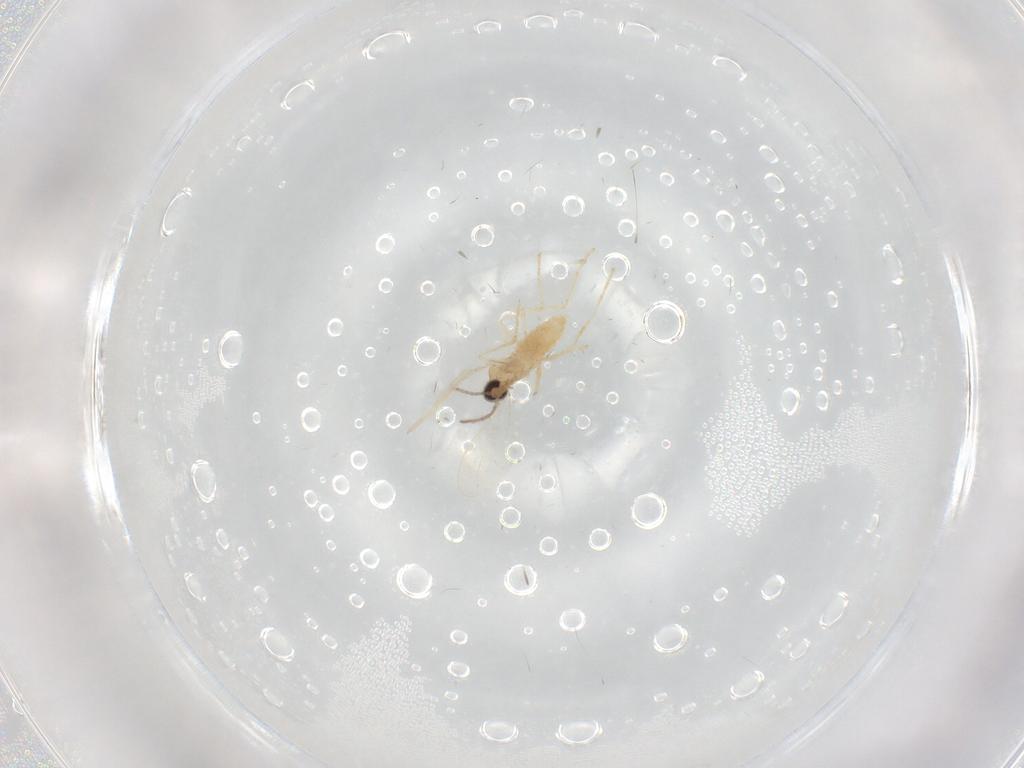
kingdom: Animalia
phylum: Arthropoda
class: Insecta
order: Diptera
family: Cecidomyiidae
